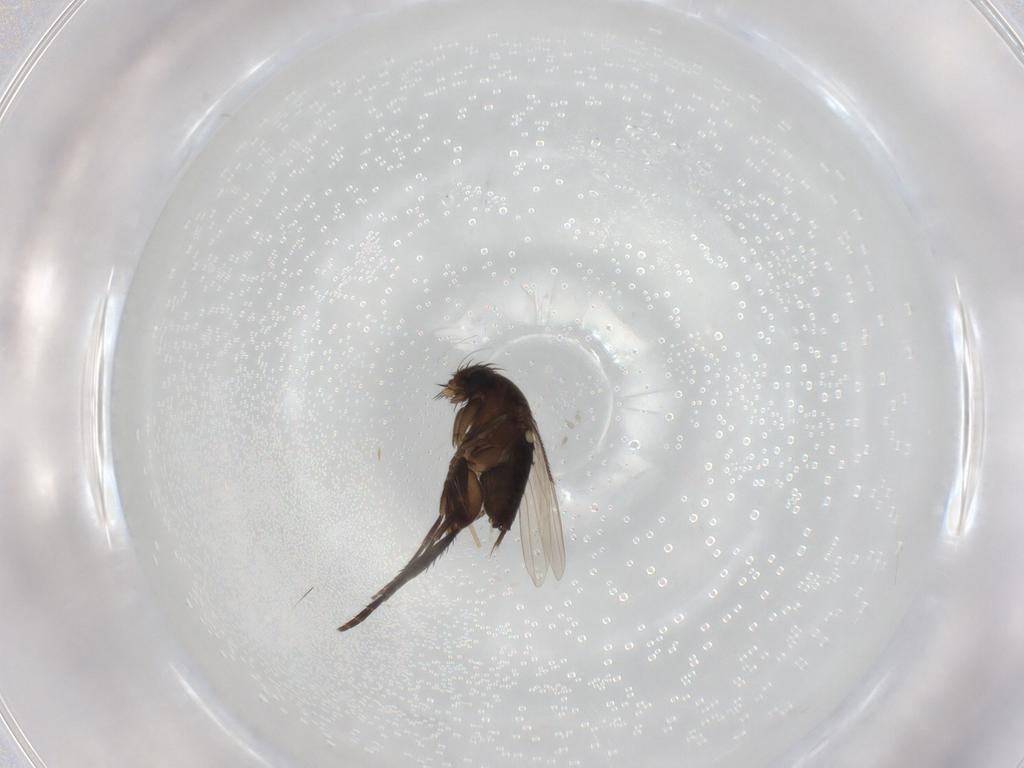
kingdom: Animalia
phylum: Arthropoda
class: Insecta
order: Diptera
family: Phoridae
